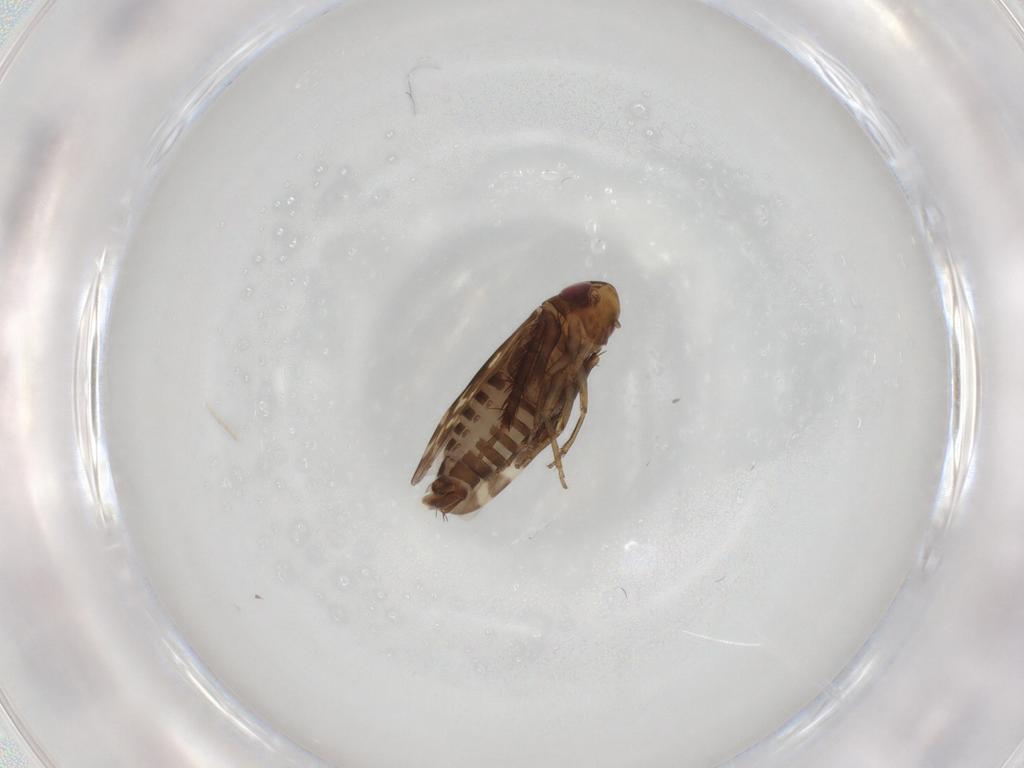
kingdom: Animalia
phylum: Arthropoda
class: Insecta
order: Hemiptera
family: Cicadellidae
